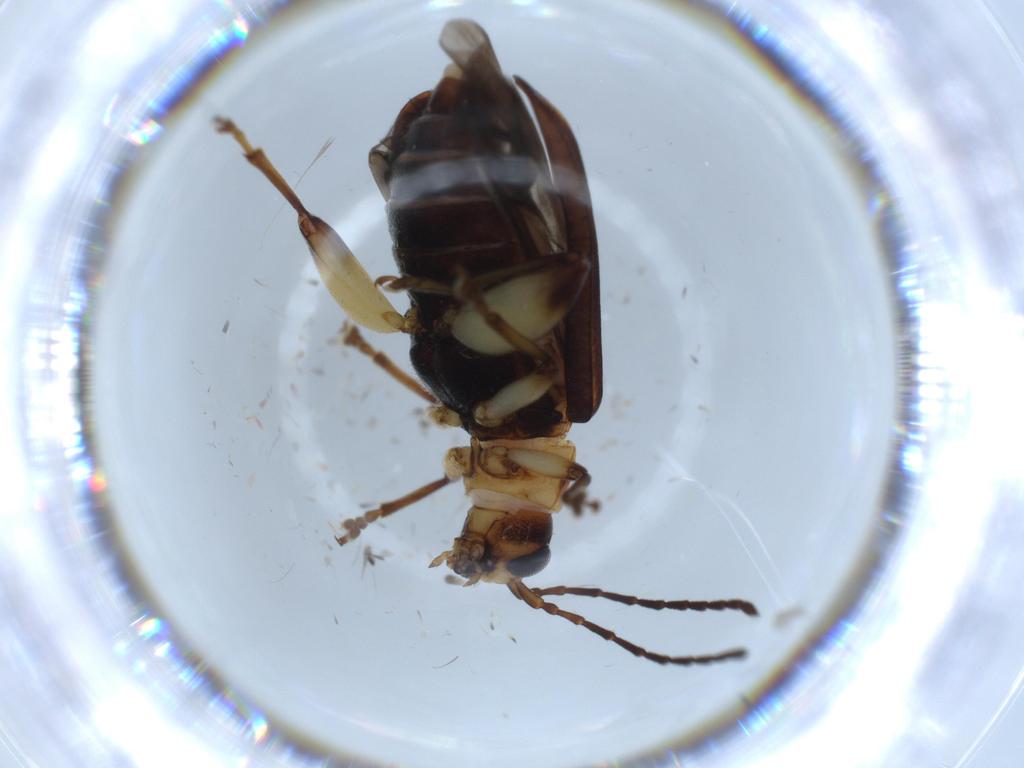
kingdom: Animalia
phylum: Arthropoda
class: Insecta
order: Coleoptera
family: Chrysomelidae
